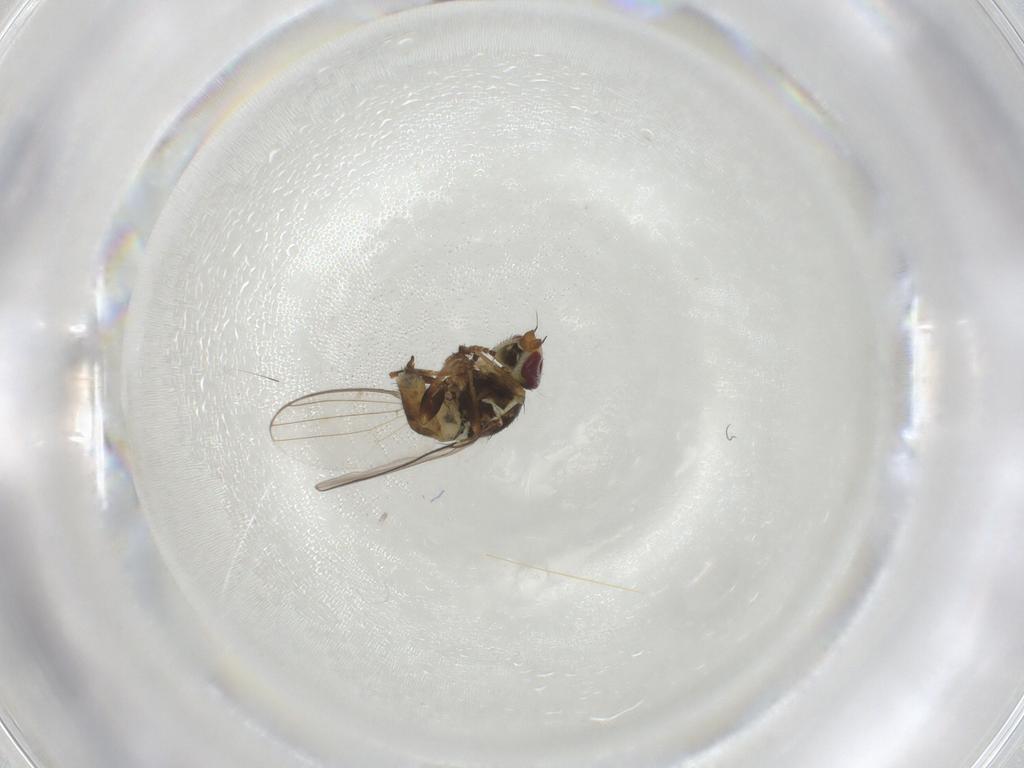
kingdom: Animalia
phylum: Arthropoda
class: Insecta
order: Diptera
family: Chloropidae
